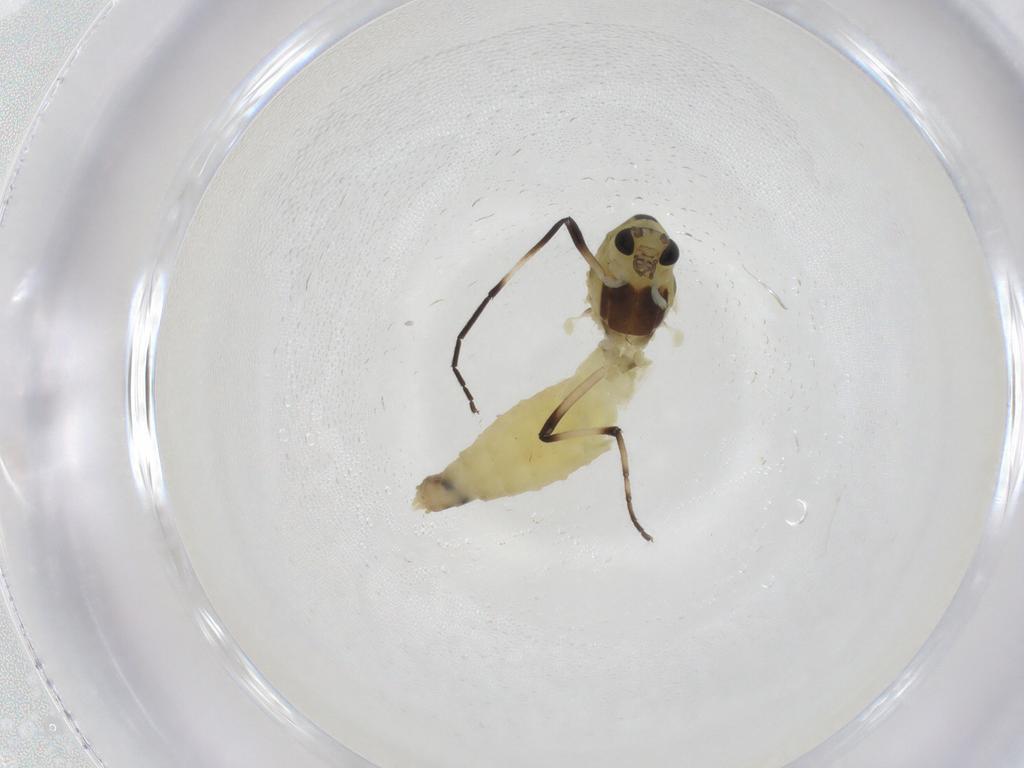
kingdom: Animalia
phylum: Arthropoda
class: Insecta
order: Diptera
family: Chironomidae
